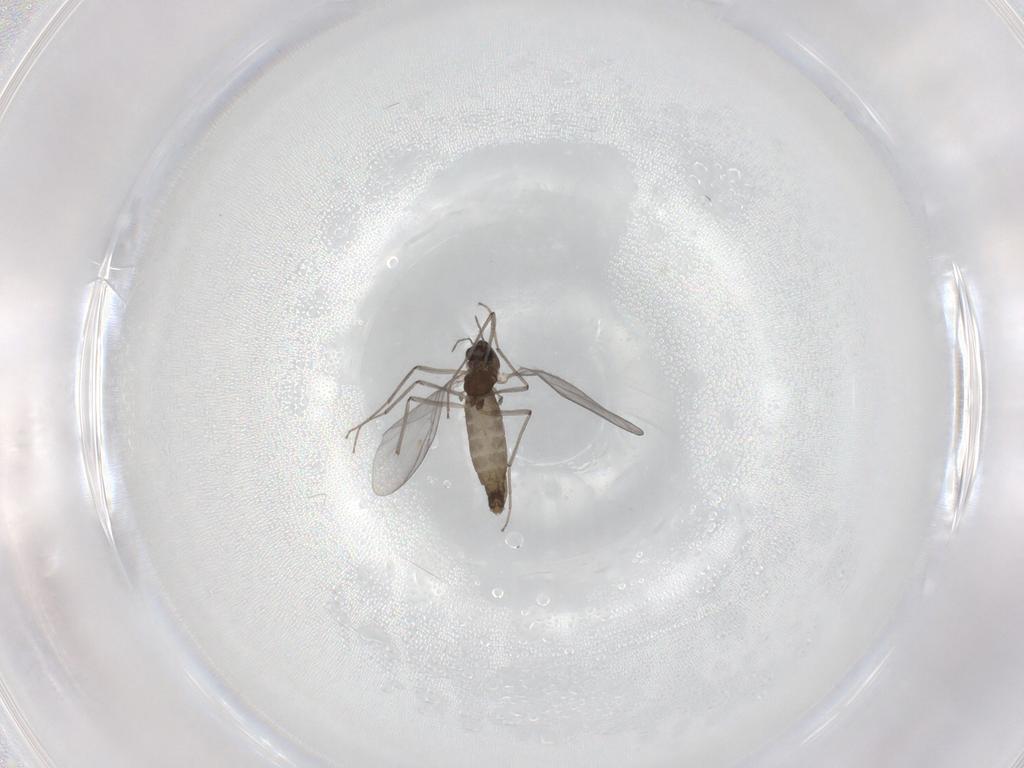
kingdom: Animalia
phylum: Arthropoda
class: Insecta
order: Diptera
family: Chironomidae
